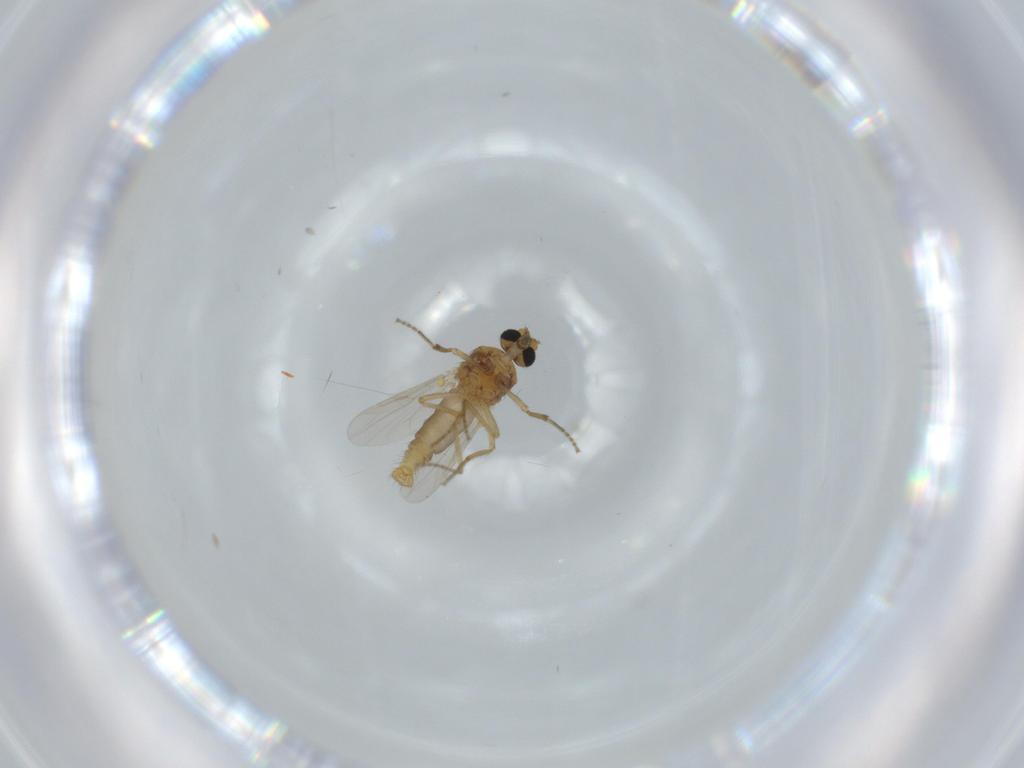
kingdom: Animalia
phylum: Arthropoda
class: Insecta
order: Diptera
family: Ceratopogonidae
